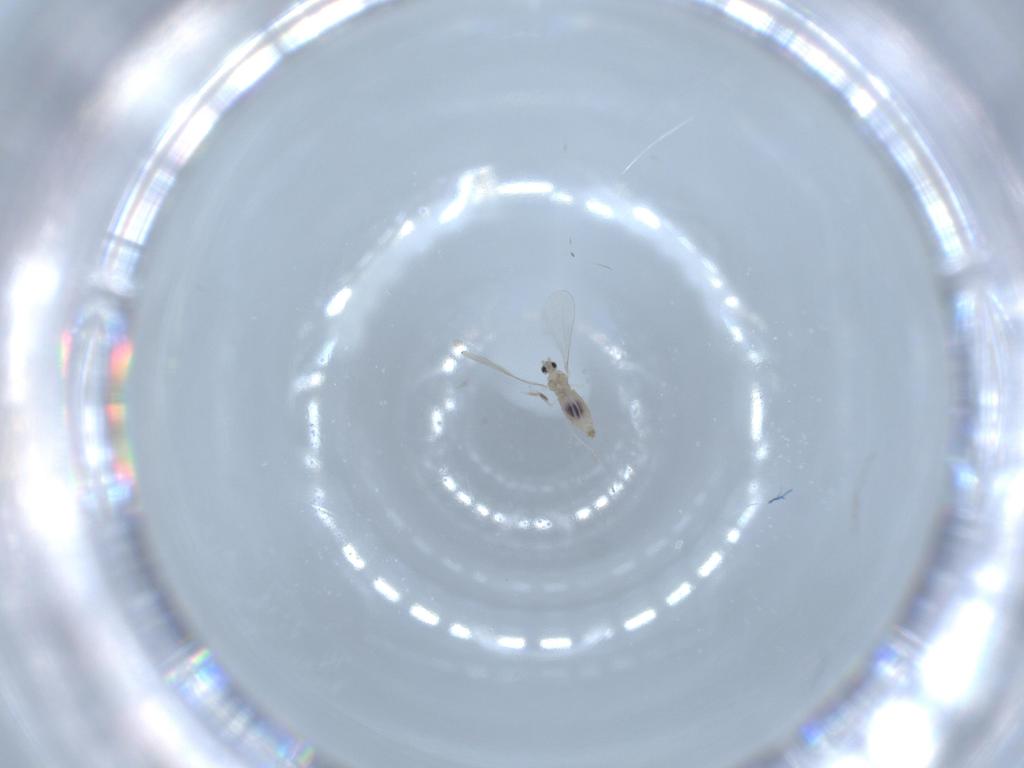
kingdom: Animalia
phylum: Arthropoda
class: Insecta
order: Diptera
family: Cecidomyiidae
